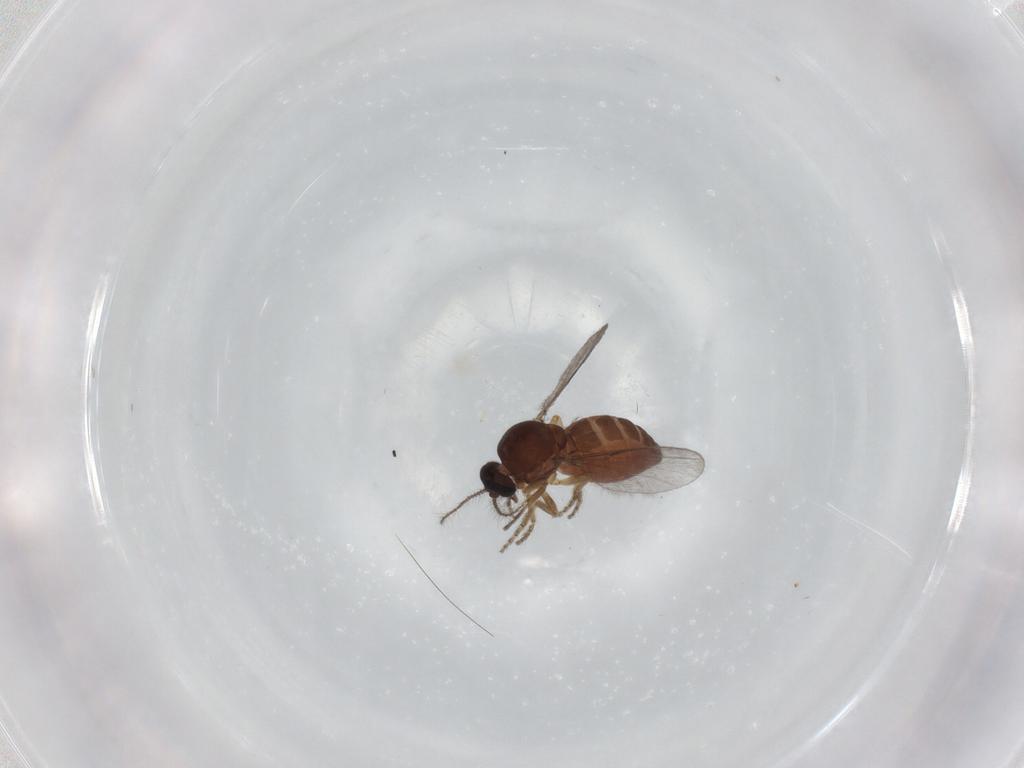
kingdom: Animalia
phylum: Arthropoda
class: Insecta
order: Diptera
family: Ceratopogonidae
